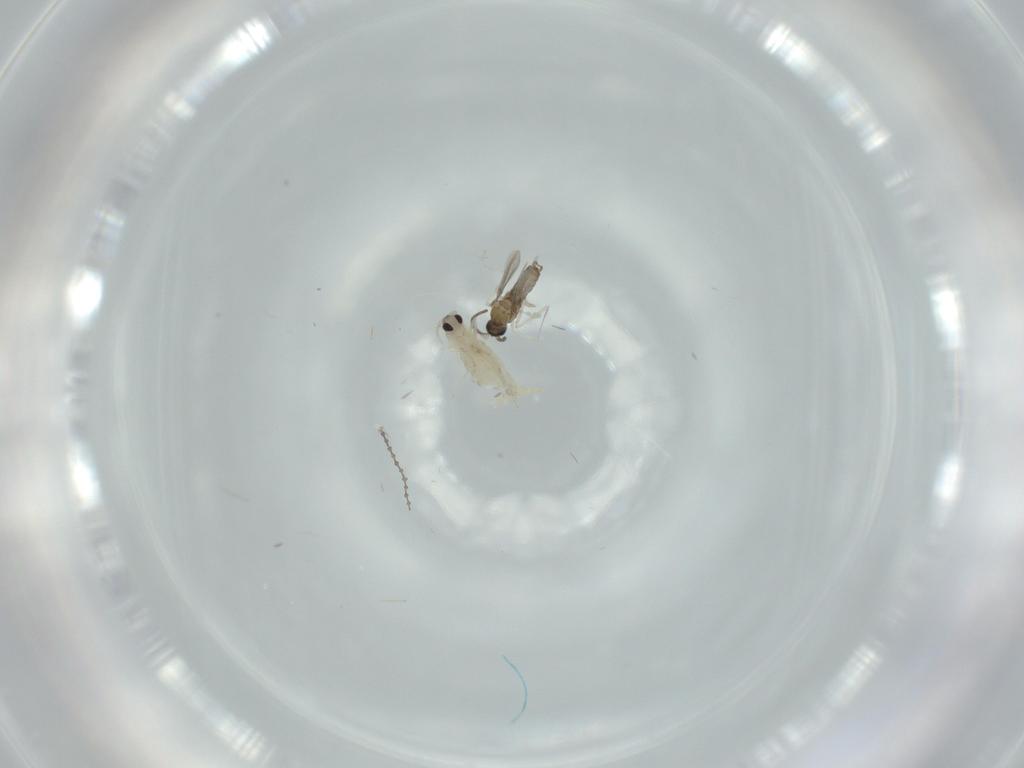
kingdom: Animalia
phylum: Arthropoda
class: Insecta
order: Diptera
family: Cecidomyiidae
